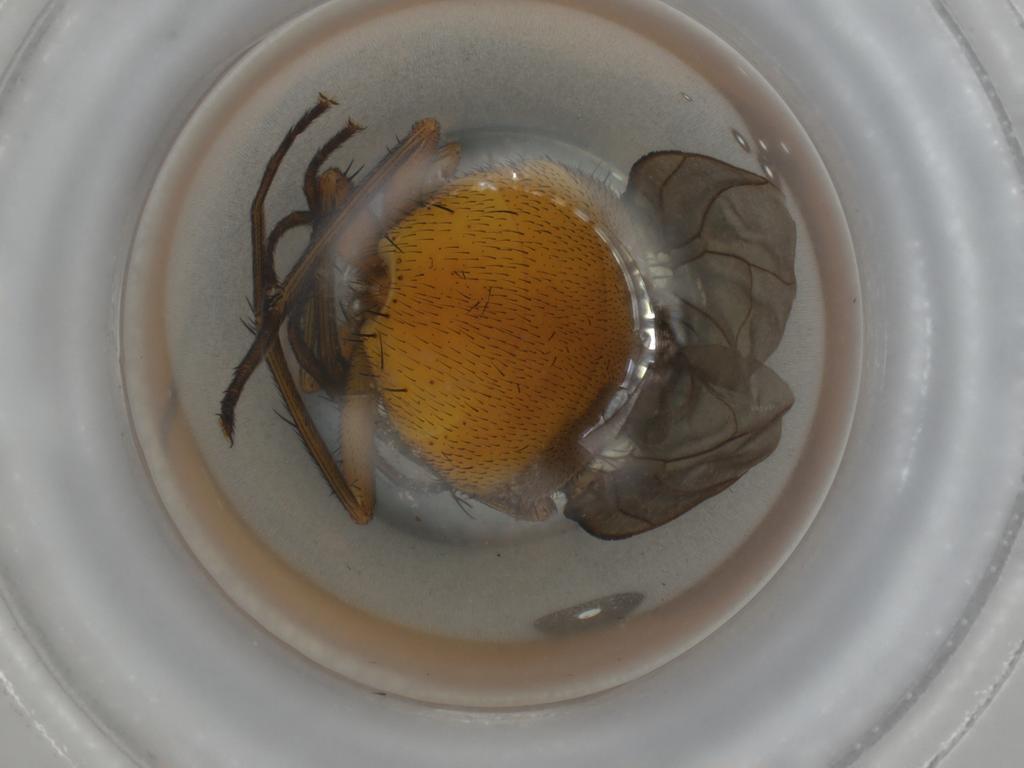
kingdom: Animalia
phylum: Arthropoda
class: Insecta
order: Diptera
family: Muscidae
